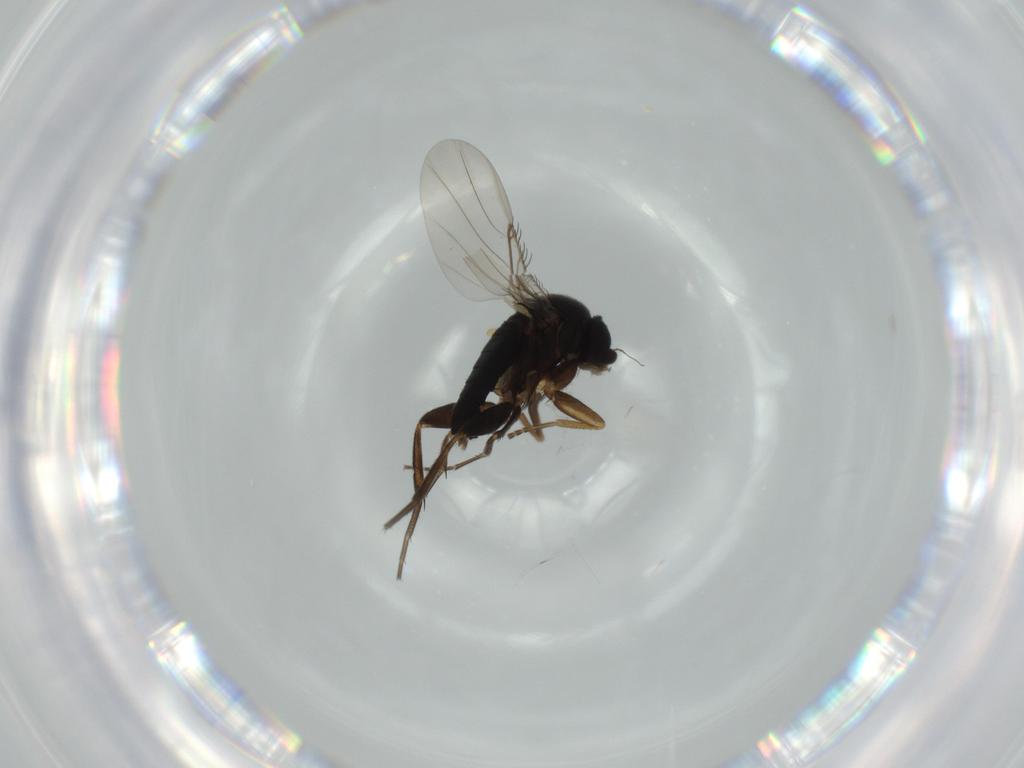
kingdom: Animalia
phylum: Arthropoda
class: Insecta
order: Diptera
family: Phoridae
